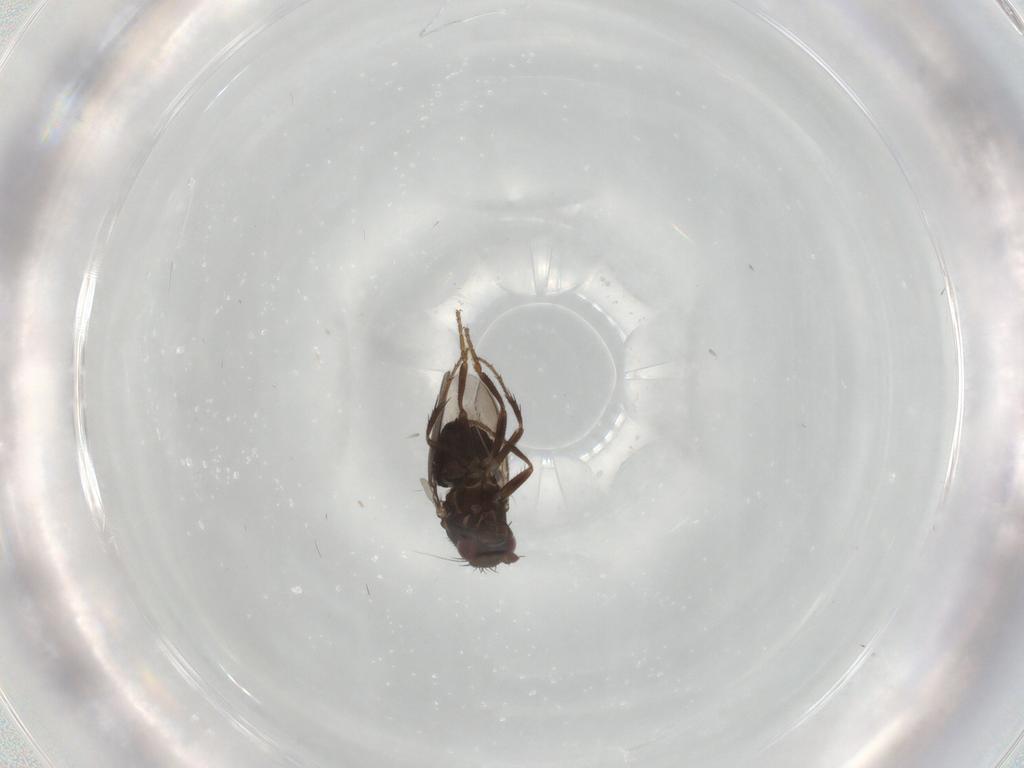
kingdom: Animalia
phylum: Arthropoda
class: Insecta
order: Diptera
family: Sphaeroceridae
